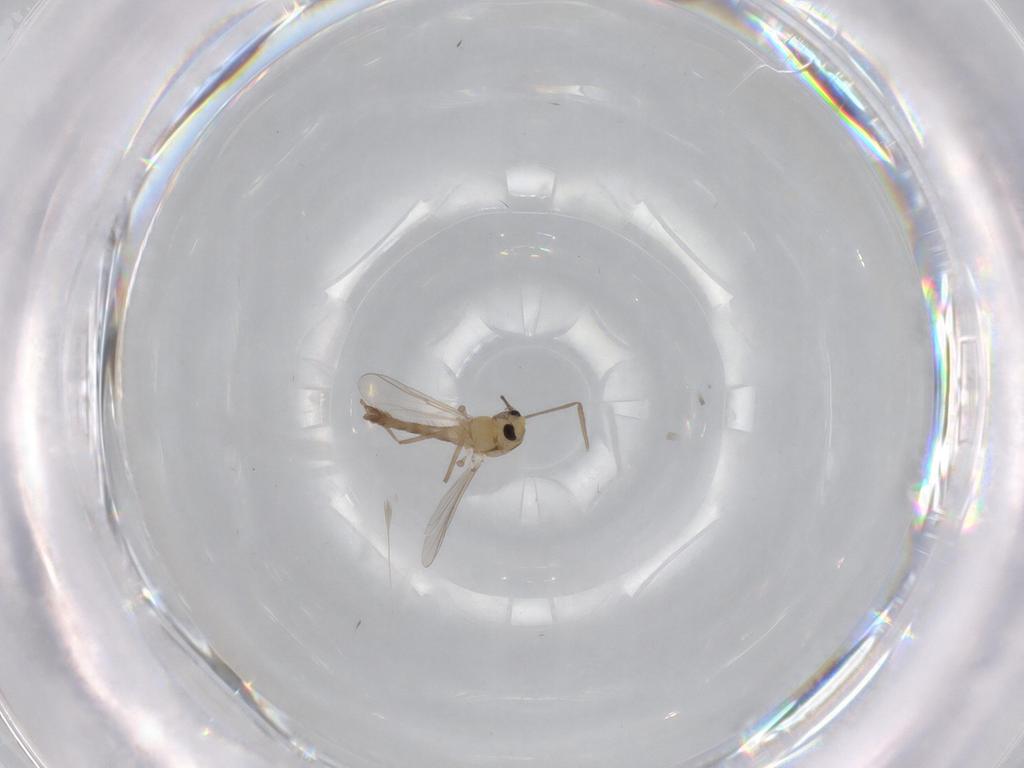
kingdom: Animalia
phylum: Arthropoda
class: Insecta
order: Diptera
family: Chironomidae
